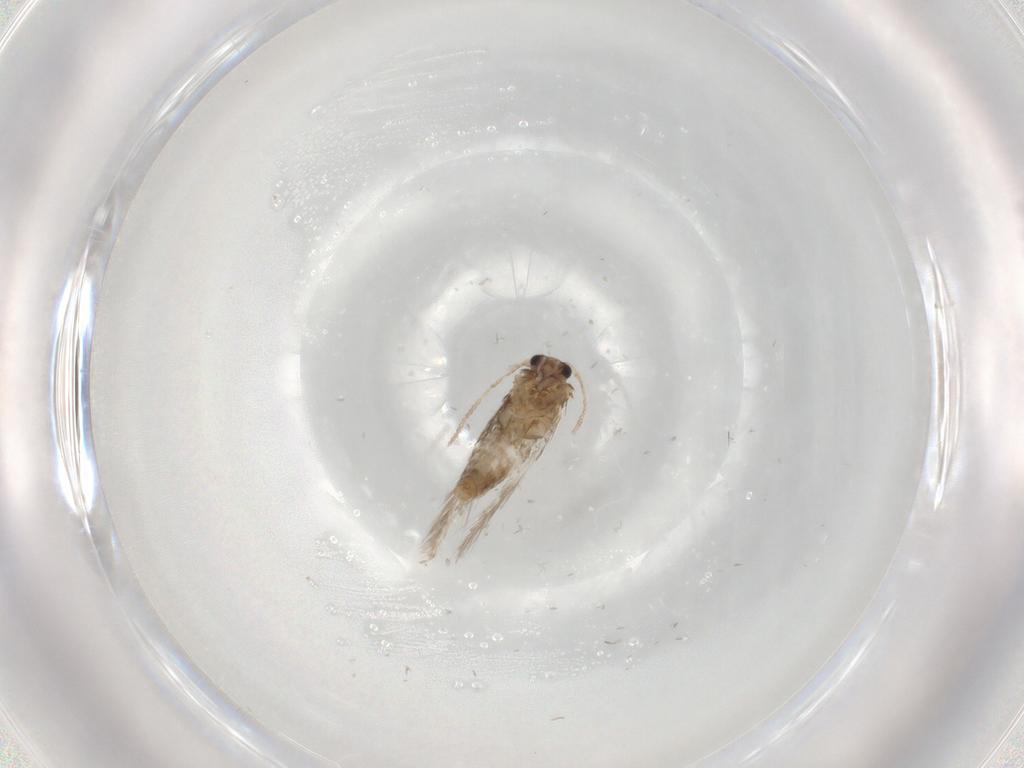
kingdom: Animalia
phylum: Arthropoda
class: Insecta
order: Lepidoptera
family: Nepticulidae
